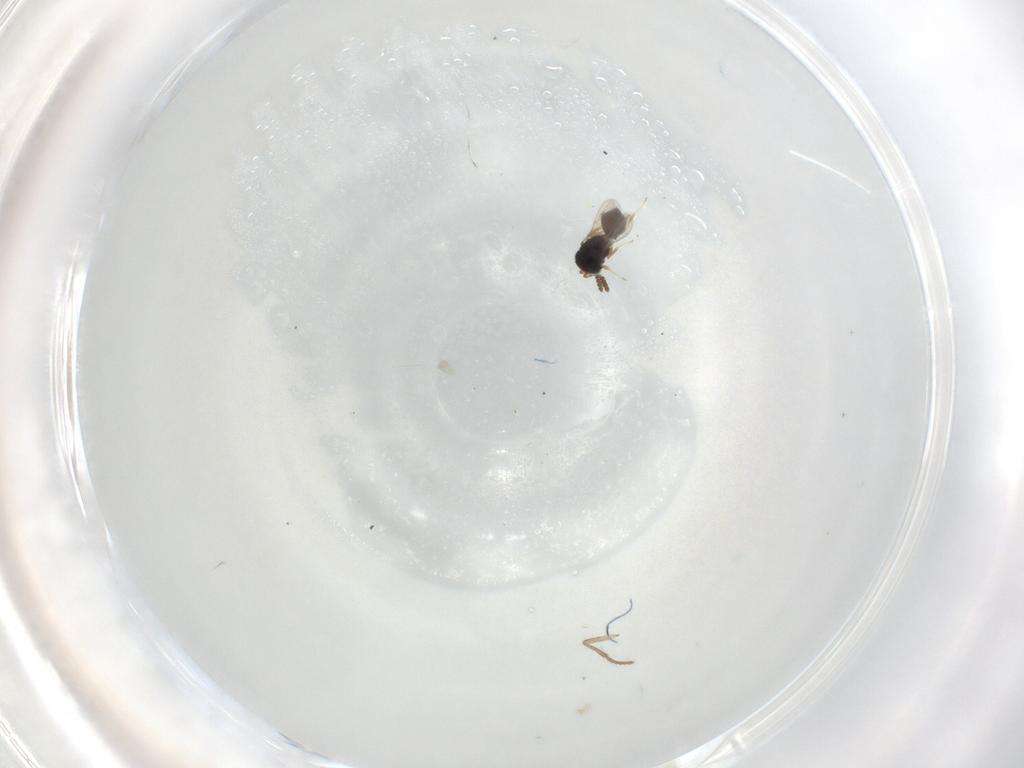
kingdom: Animalia
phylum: Arthropoda
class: Insecta
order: Hymenoptera
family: Scelionidae
